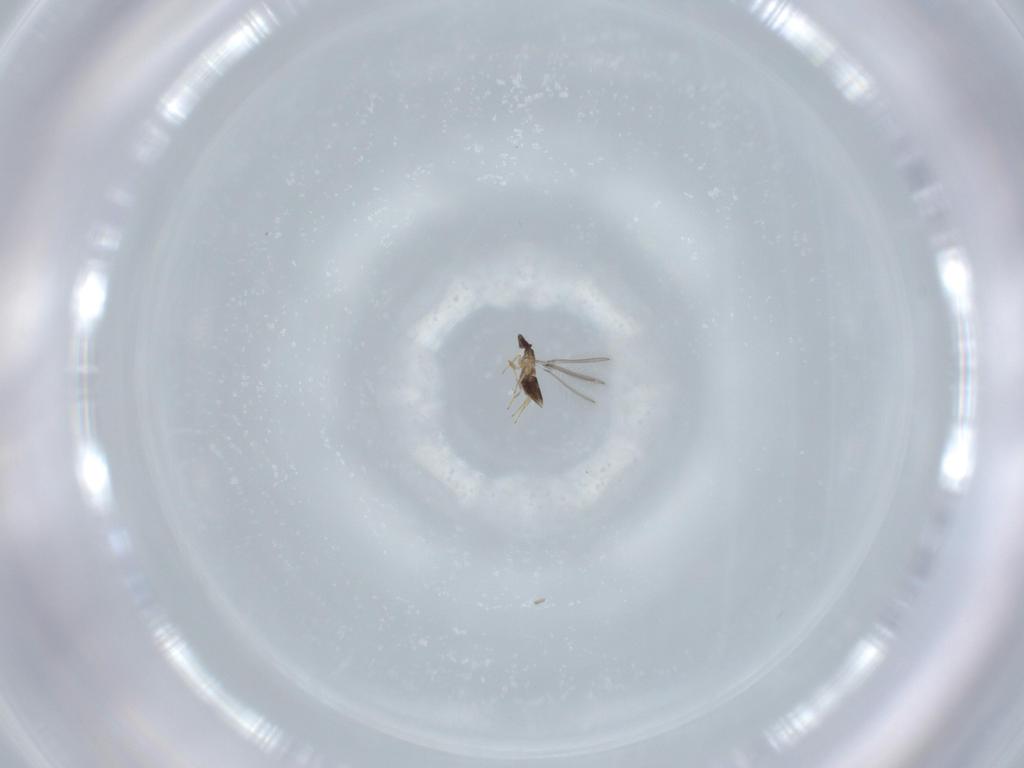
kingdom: Animalia
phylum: Arthropoda
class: Insecta
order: Hymenoptera
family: Mymaridae
